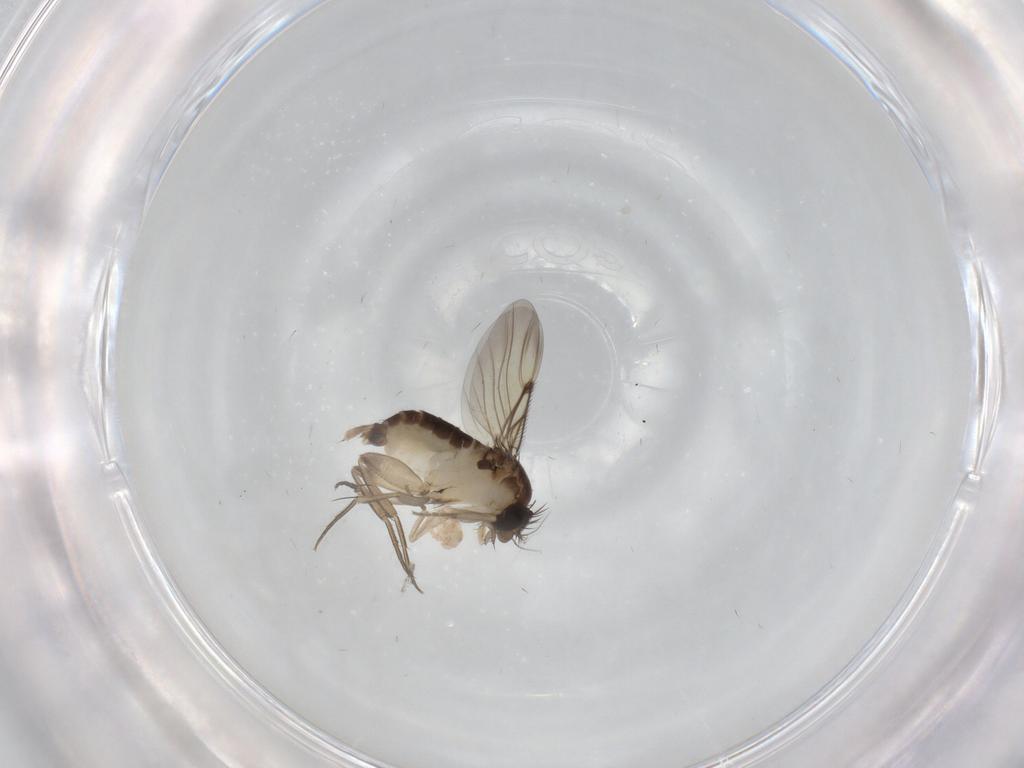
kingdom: Animalia
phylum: Arthropoda
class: Insecta
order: Diptera
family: Phoridae
